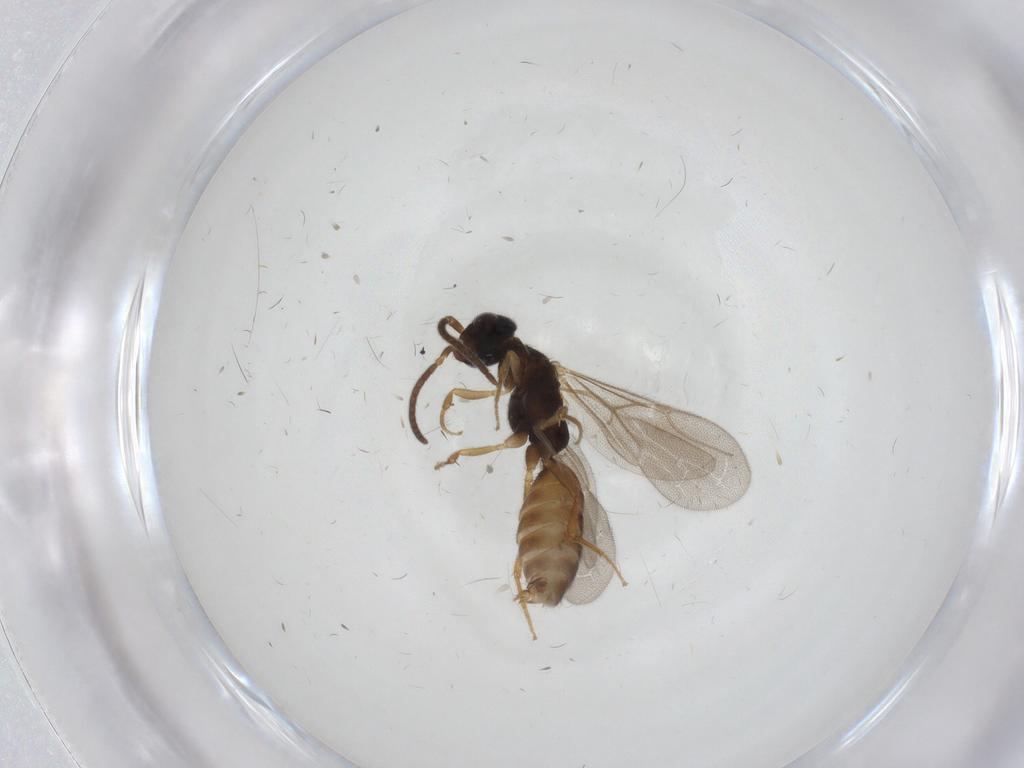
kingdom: Animalia
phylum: Arthropoda
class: Insecta
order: Hymenoptera
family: Bethylidae
